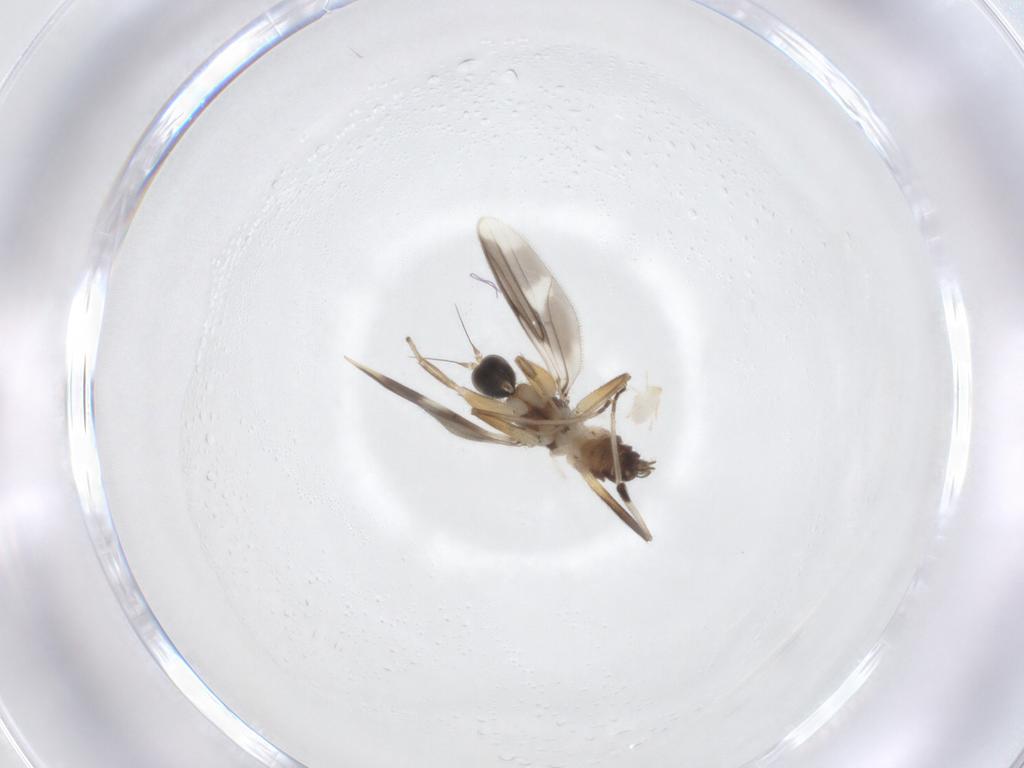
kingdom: Animalia
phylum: Arthropoda
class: Insecta
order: Diptera
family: Hybotidae
